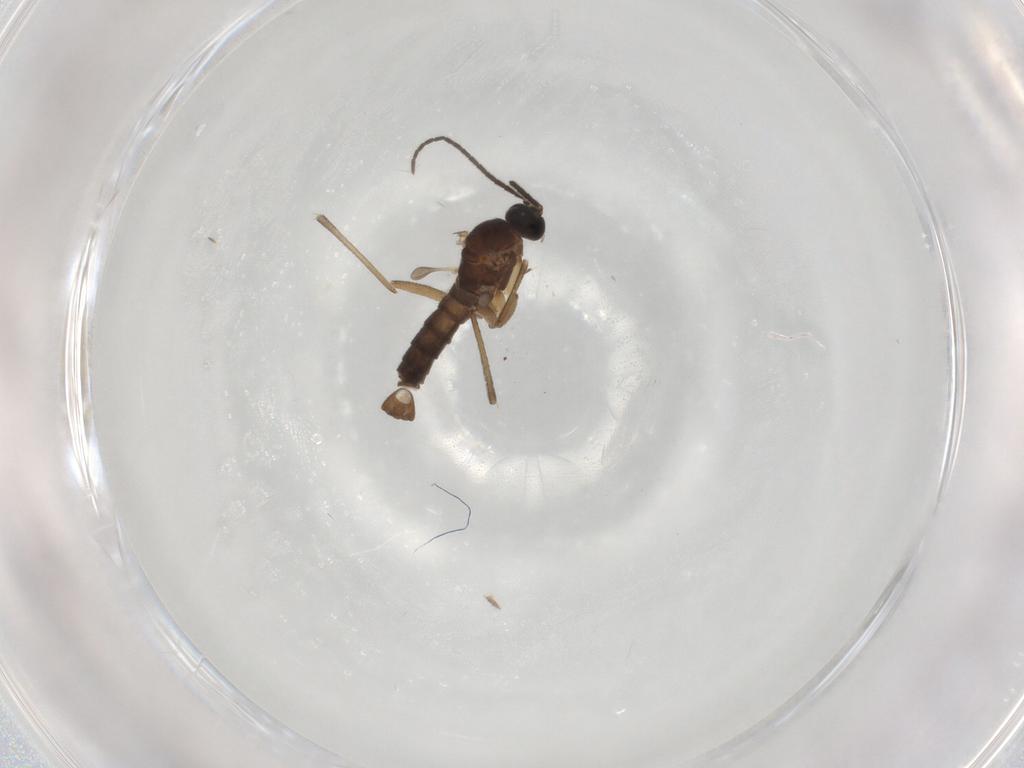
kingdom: Animalia
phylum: Arthropoda
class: Insecta
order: Diptera
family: Sciaridae
